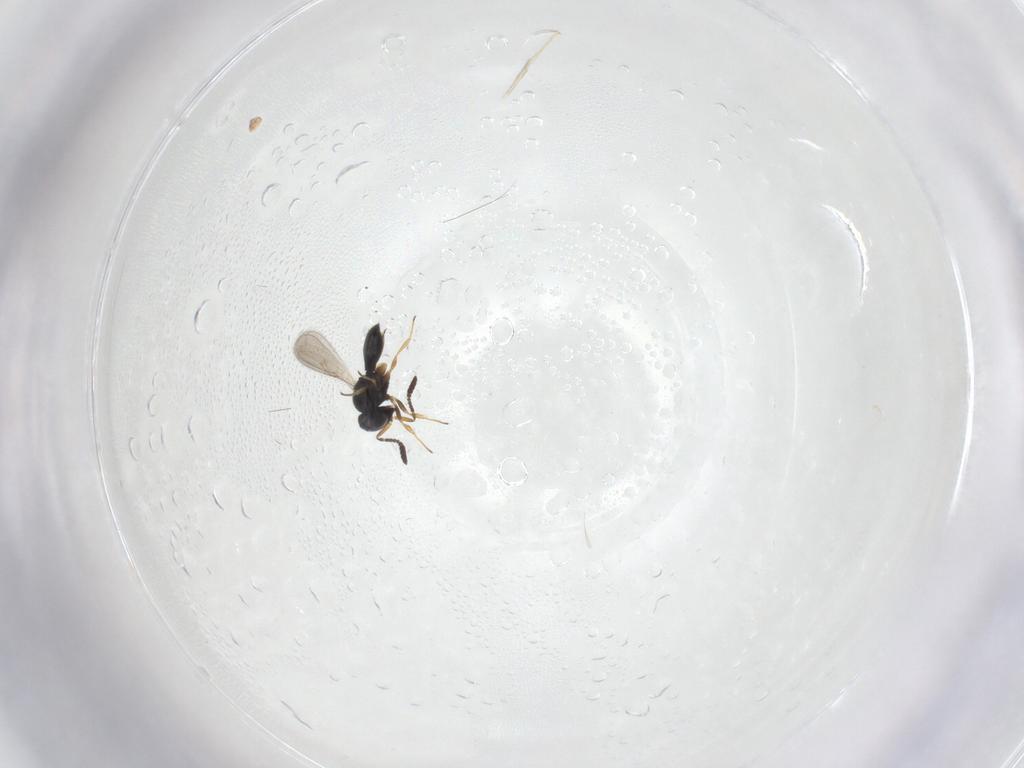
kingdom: Animalia
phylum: Arthropoda
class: Insecta
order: Hymenoptera
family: Scelionidae
